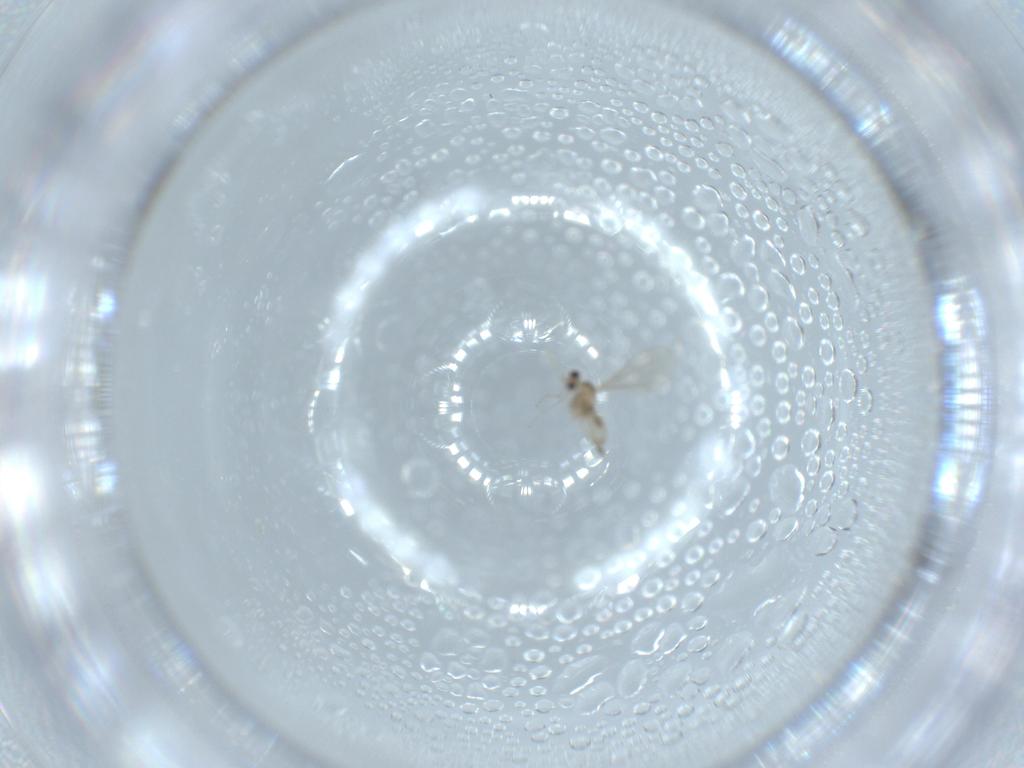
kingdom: Animalia
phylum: Arthropoda
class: Insecta
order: Diptera
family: Cecidomyiidae
